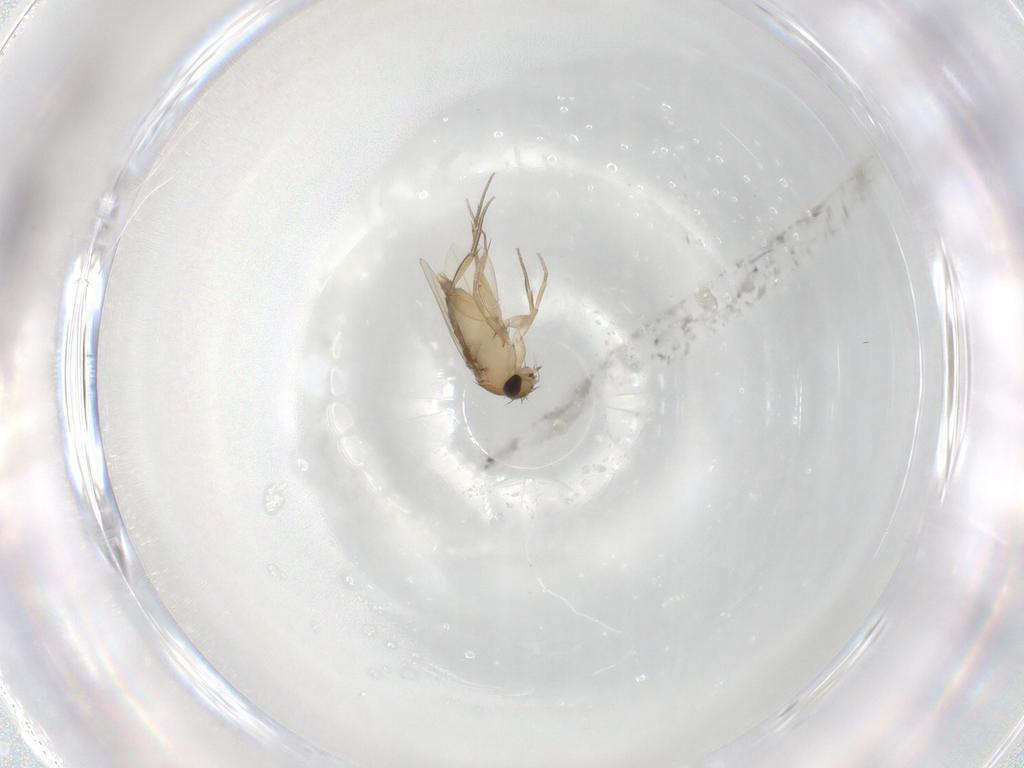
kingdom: Animalia
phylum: Arthropoda
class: Insecta
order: Diptera
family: Phoridae
